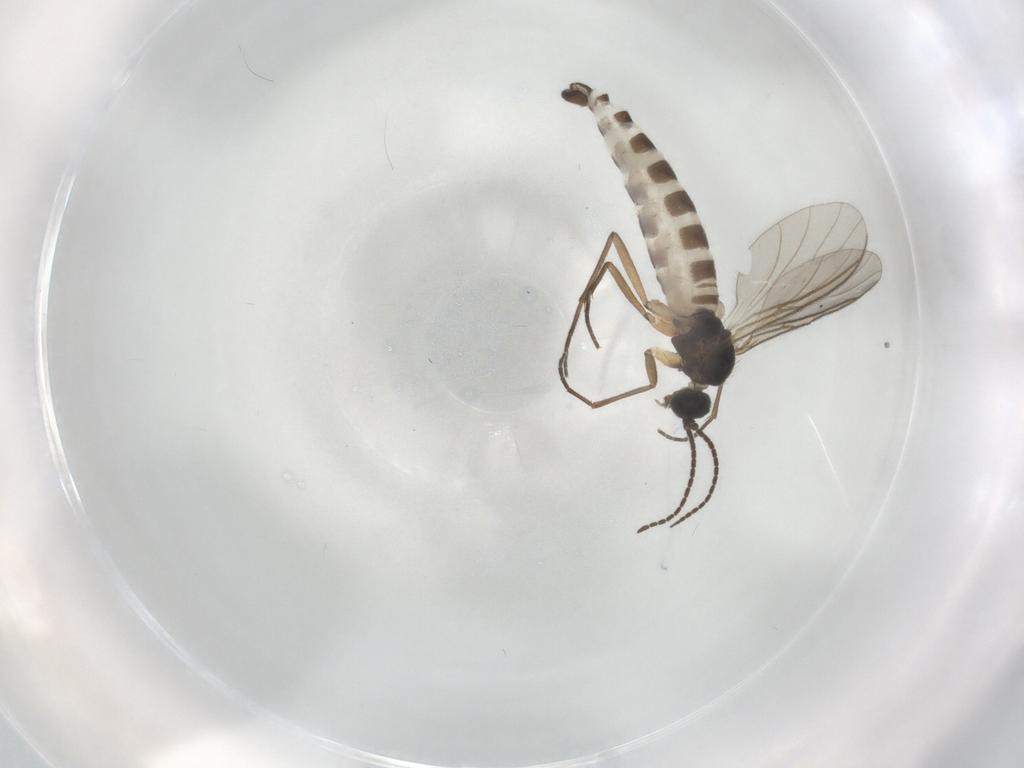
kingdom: Animalia
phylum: Arthropoda
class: Insecta
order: Diptera
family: Sciaridae
